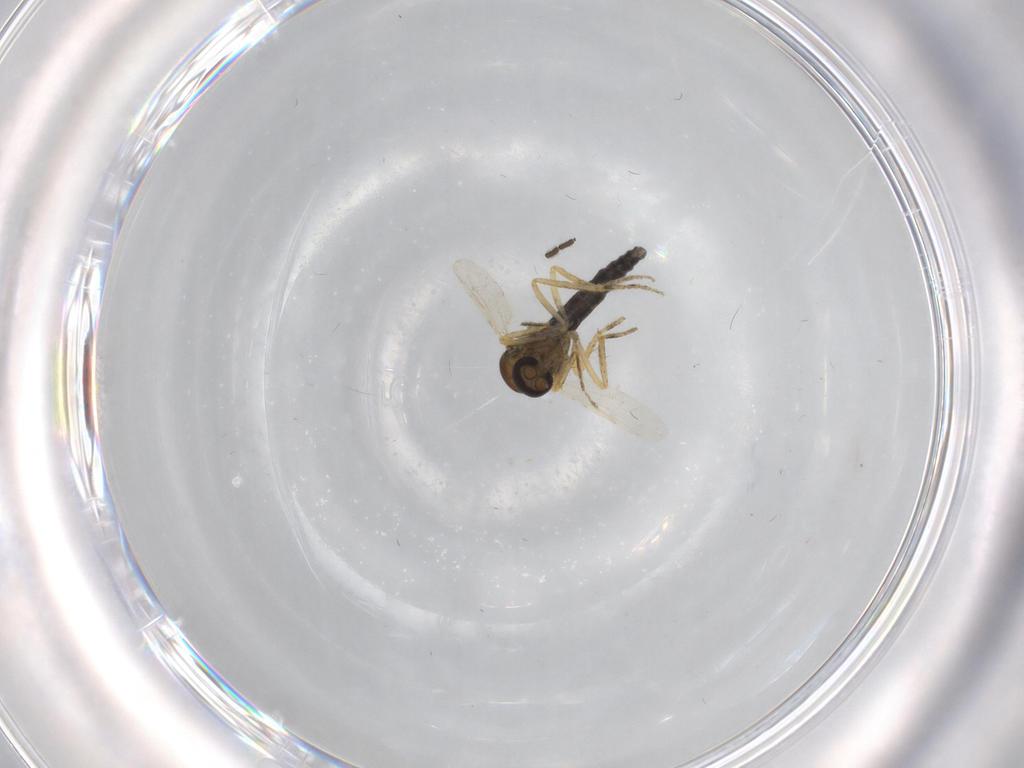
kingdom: Animalia
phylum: Arthropoda
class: Insecta
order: Diptera
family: Ceratopogonidae
